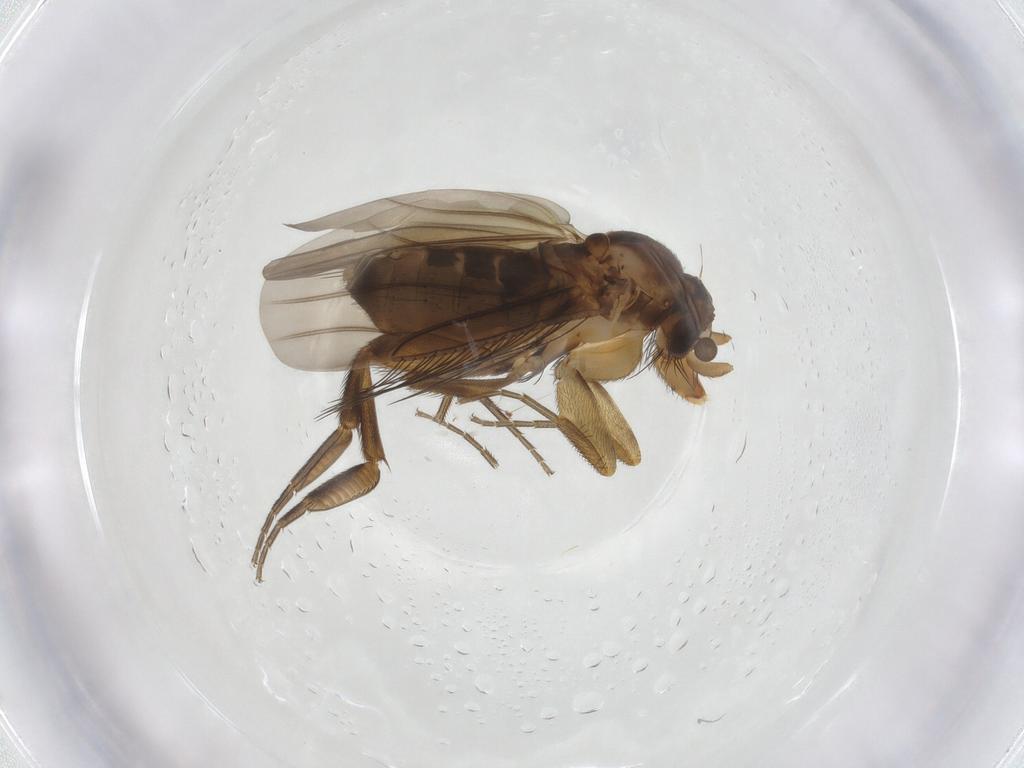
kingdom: Animalia
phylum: Arthropoda
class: Insecta
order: Diptera
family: Phoridae
